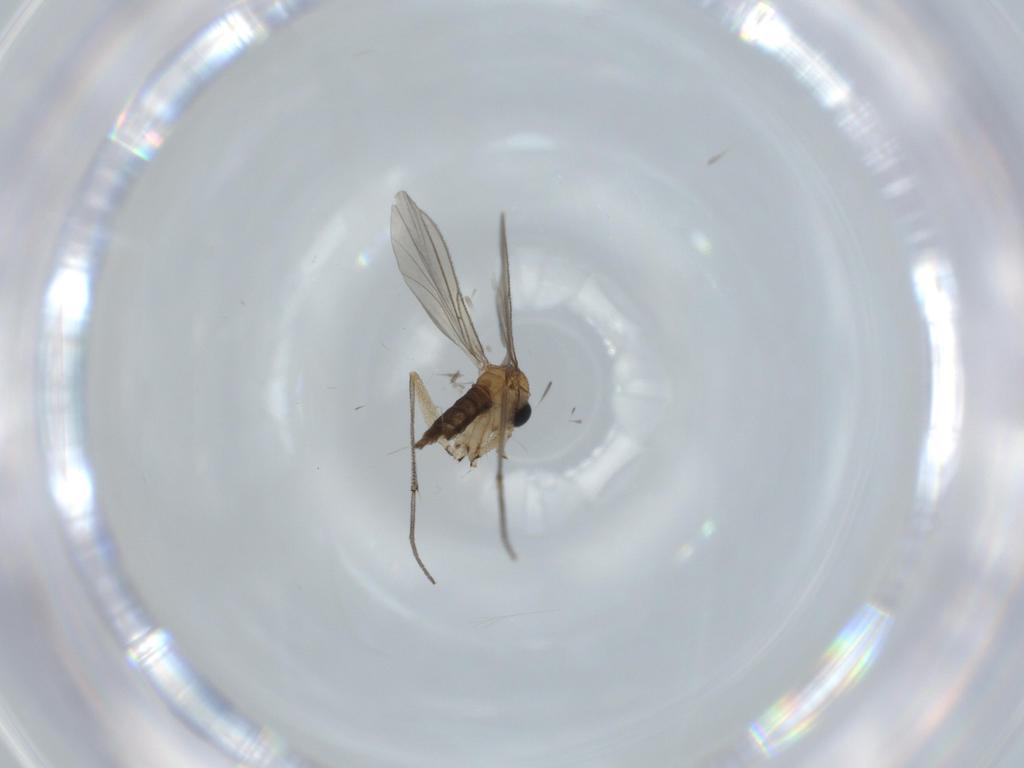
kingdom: Animalia
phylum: Arthropoda
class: Insecta
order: Diptera
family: Sciaridae
